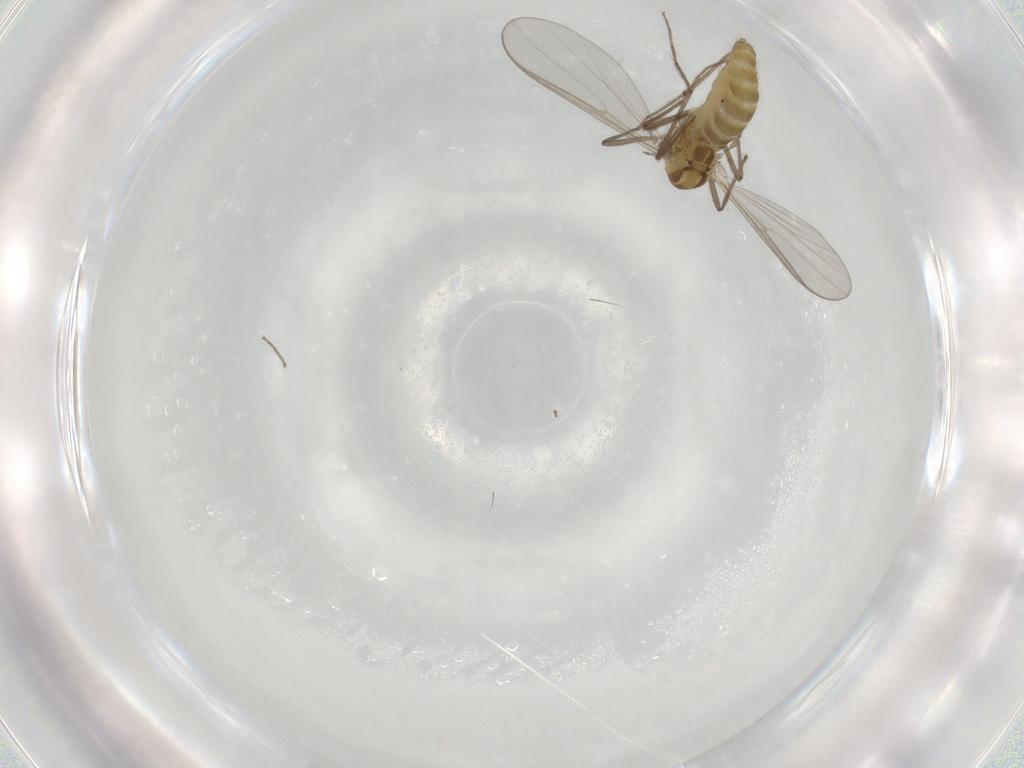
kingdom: Animalia
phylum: Arthropoda
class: Insecta
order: Diptera
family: Chironomidae
